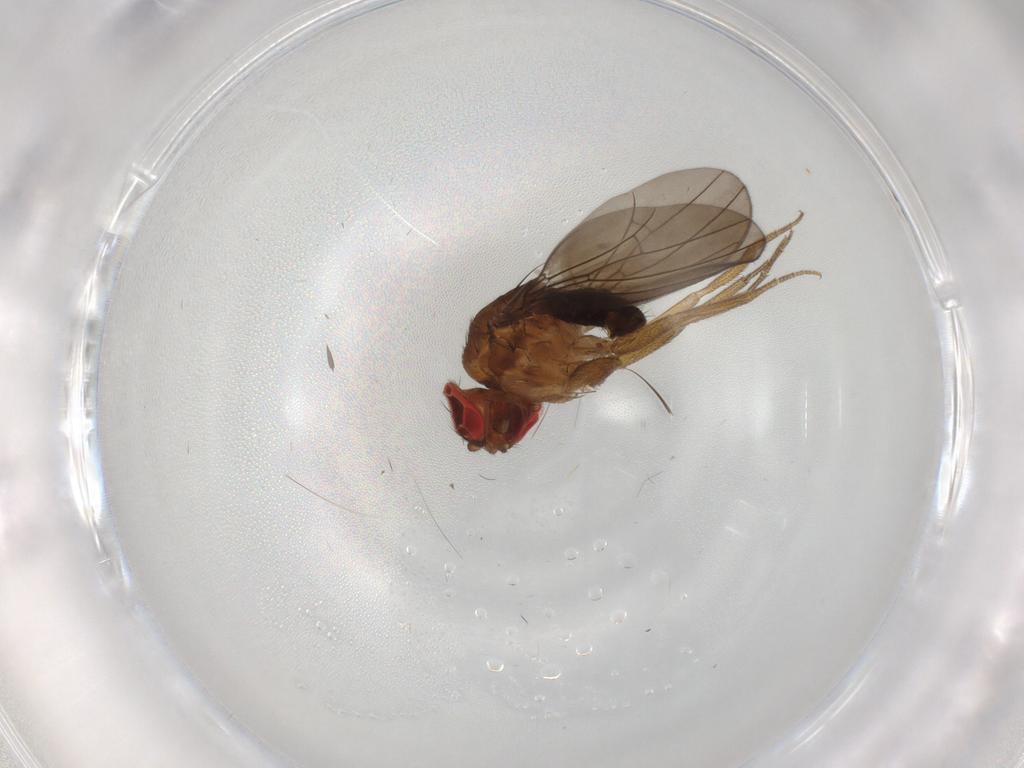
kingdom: Animalia
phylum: Arthropoda
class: Insecta
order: Diptera
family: Drosophilidae
